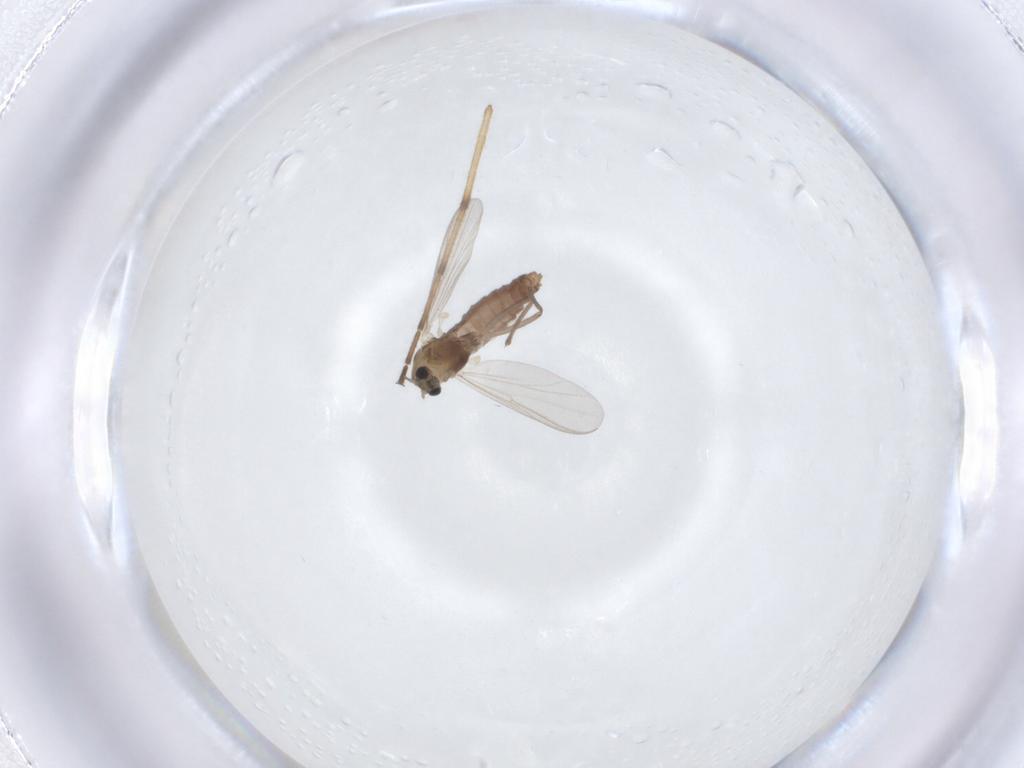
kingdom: Animalia
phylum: Arthropoda
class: Insecta
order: Diptera
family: Chironomidae
